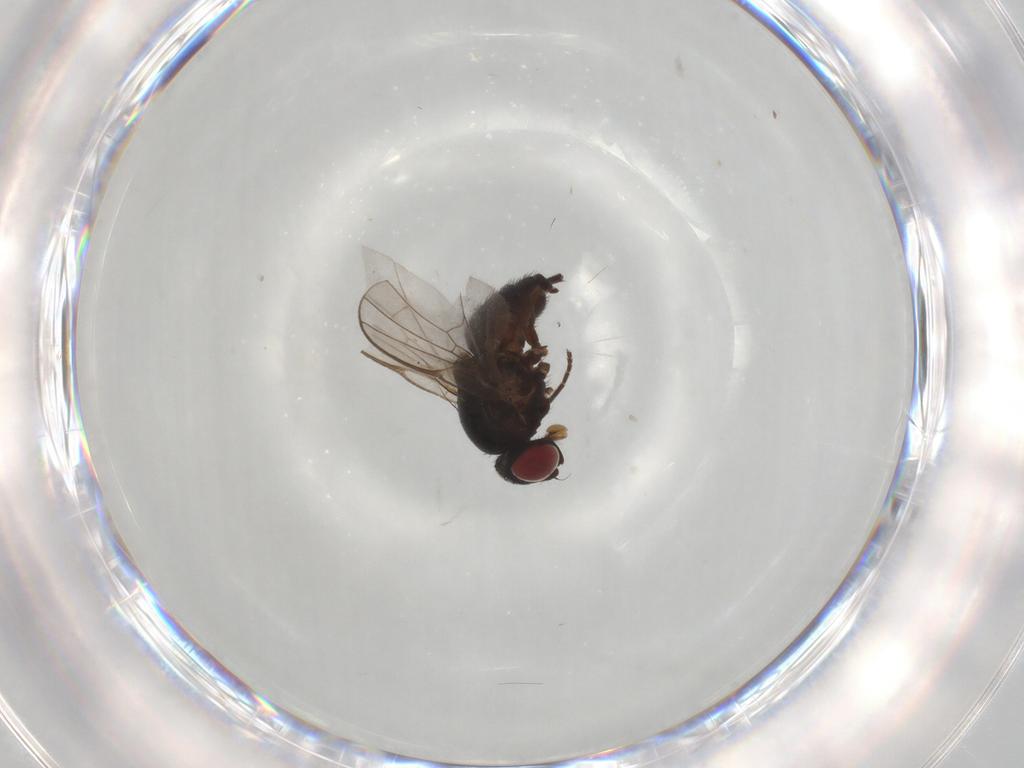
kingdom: Animalia
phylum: Arthropoda
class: Insecta
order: Diptera
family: Agromyzidae
